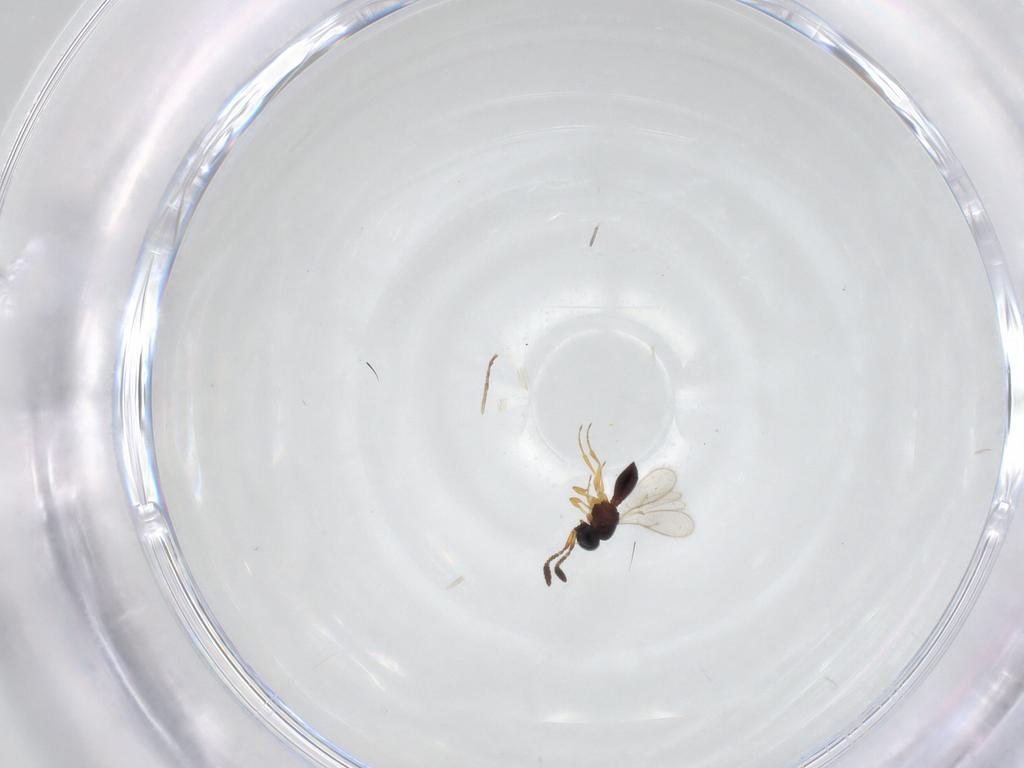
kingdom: Animalia
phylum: Arthropoda
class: Insecta
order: Hymenoptera
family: Scelionidae
